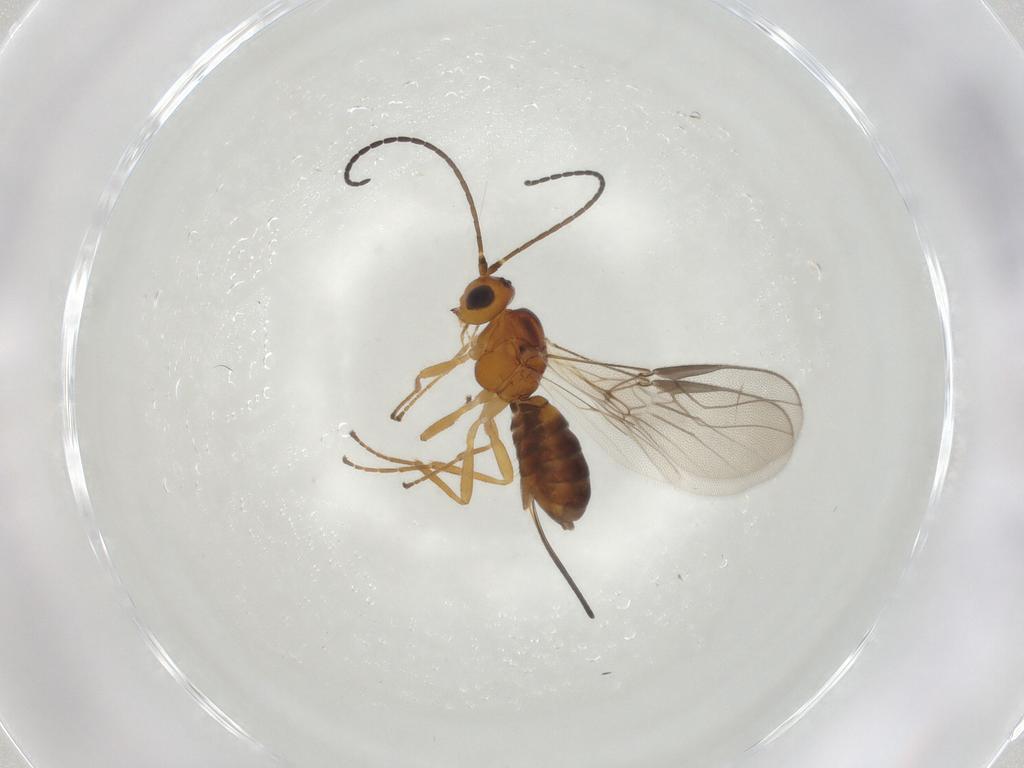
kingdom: Animalia
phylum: Arthropoda
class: Insecta
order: Hymenoptera
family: Braconidae
